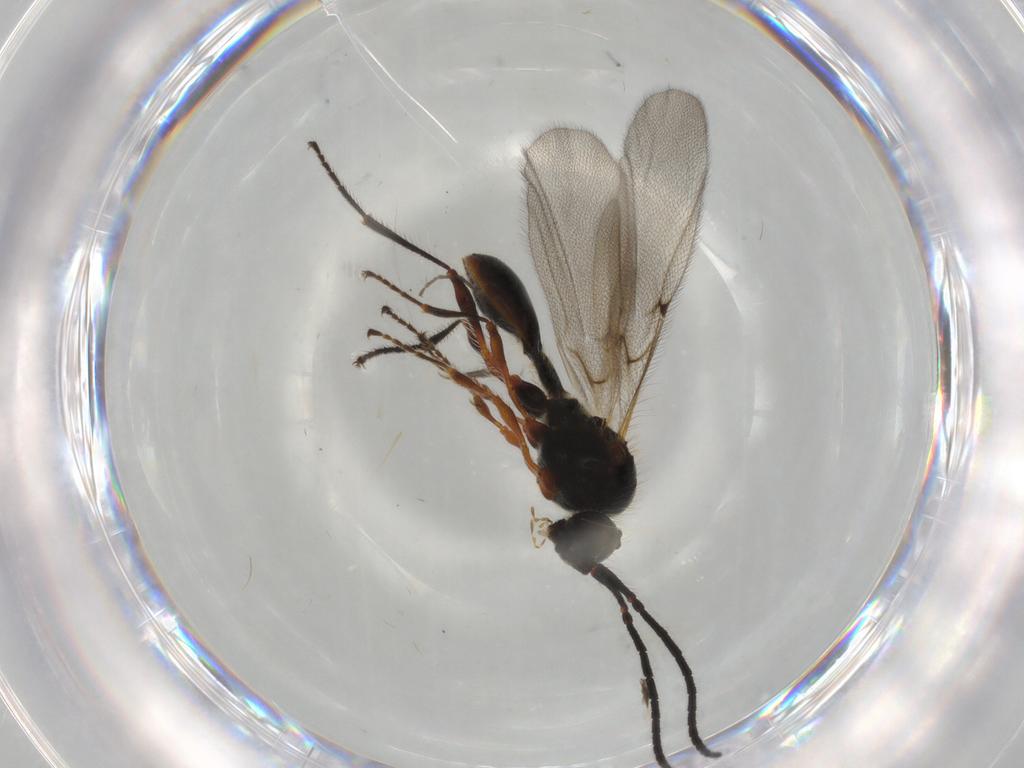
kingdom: Animalia
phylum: Arthropoda
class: Insecta
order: Hymenoptera
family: Diapriidae
